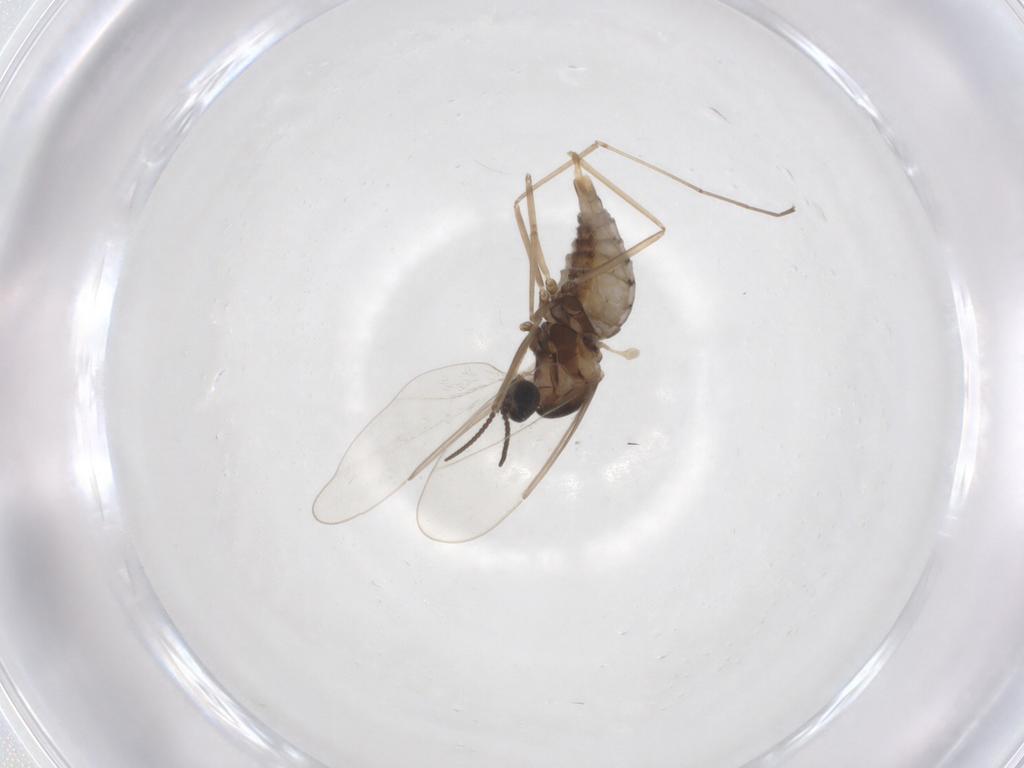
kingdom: Animalia
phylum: Arthropoda
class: Insecta
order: Diptera
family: Cecidomyiidae
